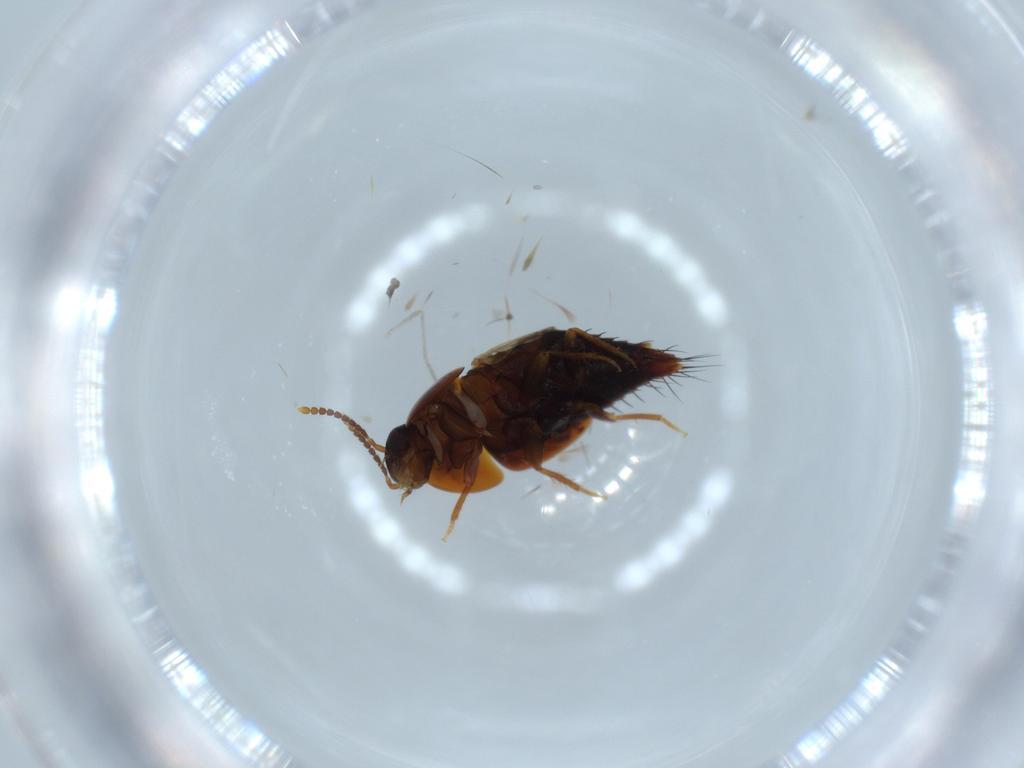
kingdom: Animalia
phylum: Arthropoda
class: Insecta
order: Coleoptera
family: Staphylinidae
